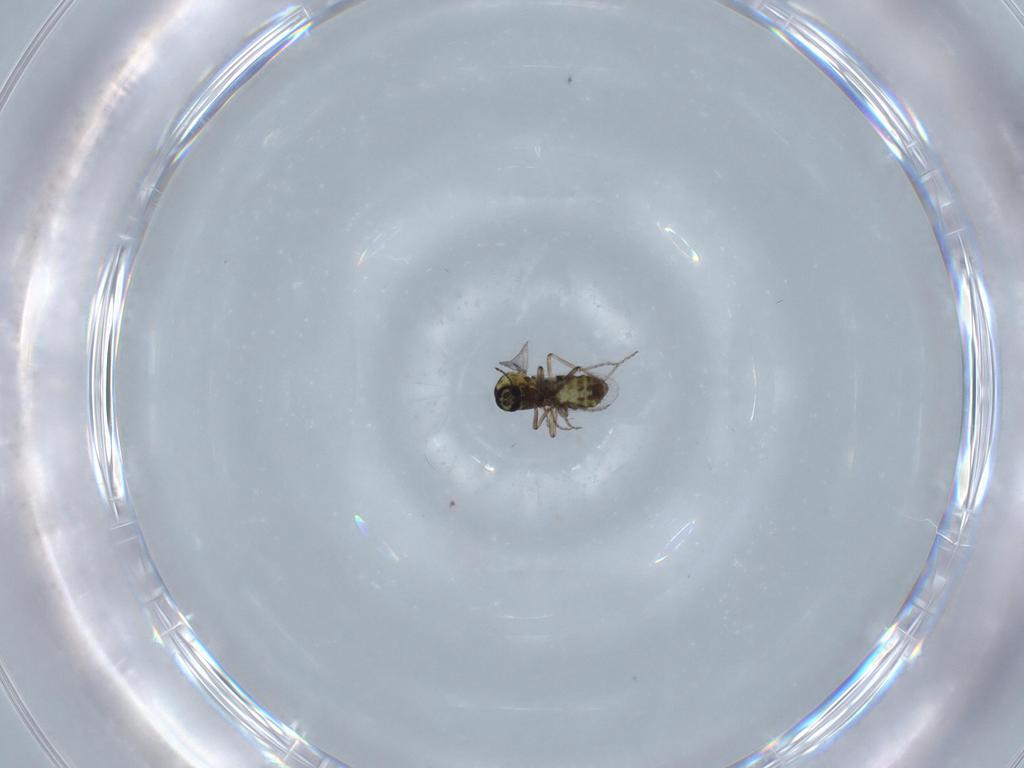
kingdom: Animalia
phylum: Arthropoda
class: Insecta
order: Diptera
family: Ceratopogonidae
